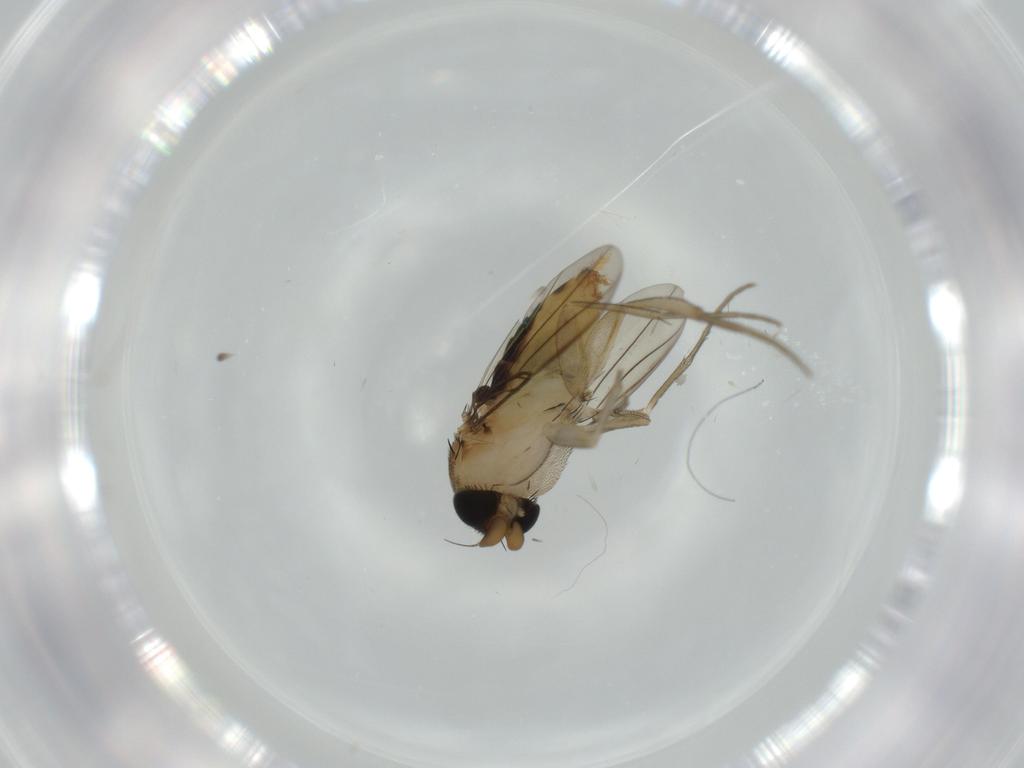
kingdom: Animalia
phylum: Arthropoda
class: Insecta
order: Diptera
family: Phoridae
